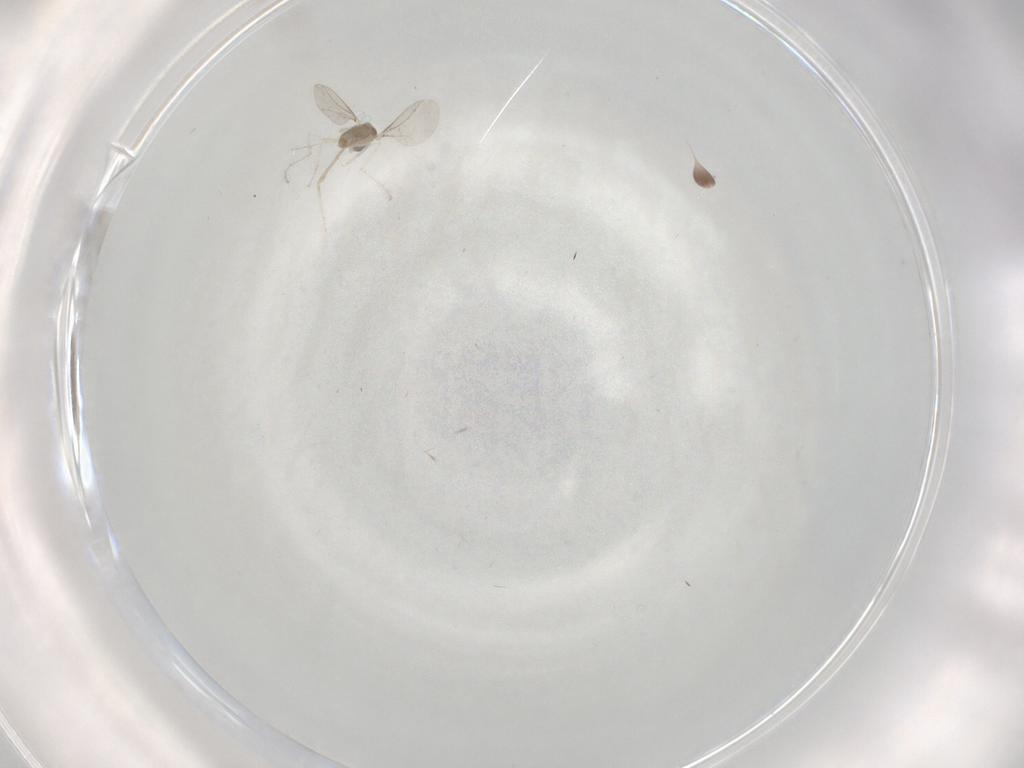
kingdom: Animalia
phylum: Arthropoda
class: Insecta
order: Diptera
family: Cecidomyiidae
